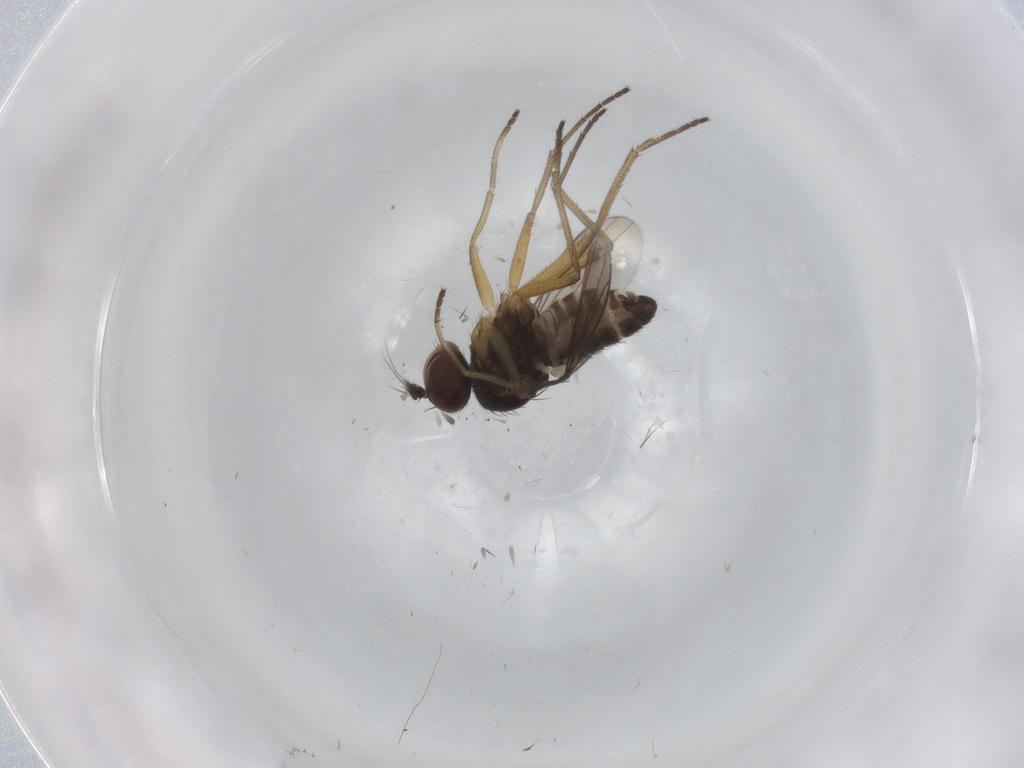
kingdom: Animalia
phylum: Arthropoda
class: Insecta
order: Diptera
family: Dolichopodidae
